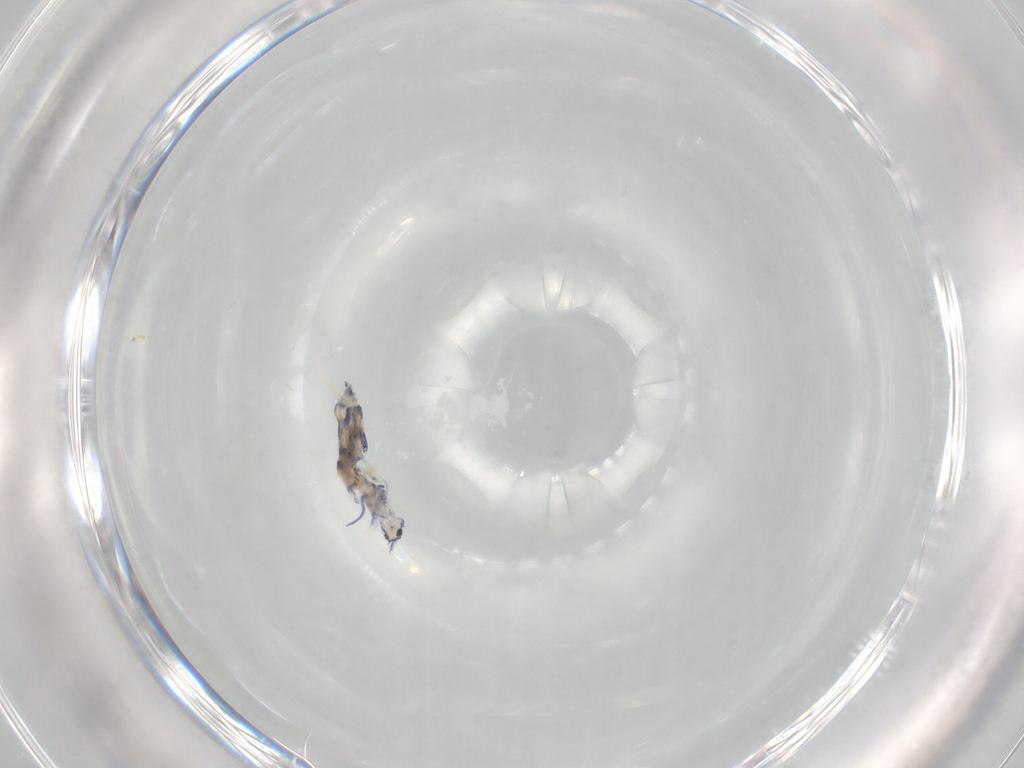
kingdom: Animalia
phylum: Arthropoda
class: Collembola
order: Entomobryomorpha
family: Entomobryidae
